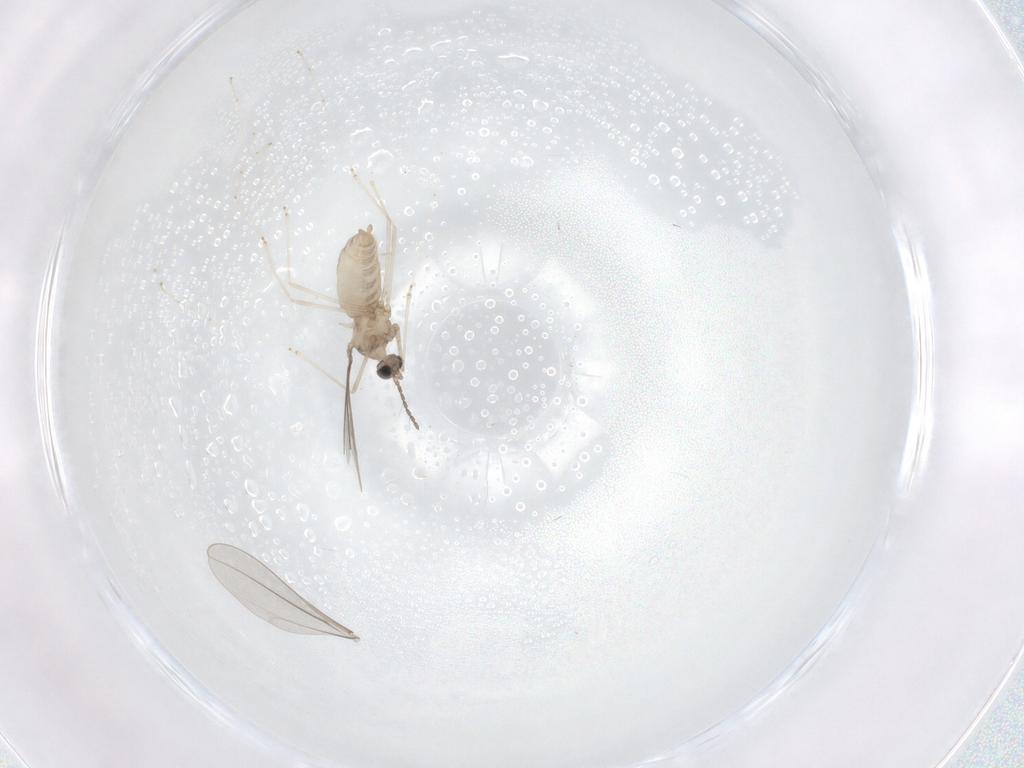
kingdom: Animalia
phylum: Arthropoda
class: Insecta
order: Diptera
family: Cecidomyiidae
